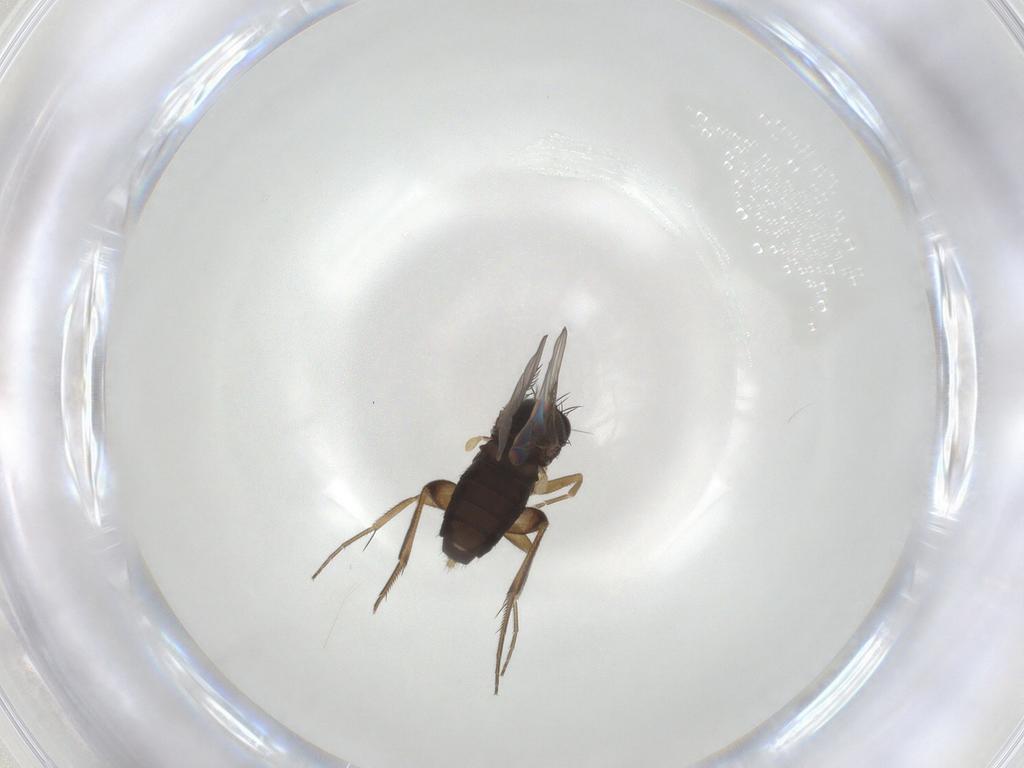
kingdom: Animalia
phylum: Arthropoda
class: Insecta
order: Diptera
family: Phoridae
